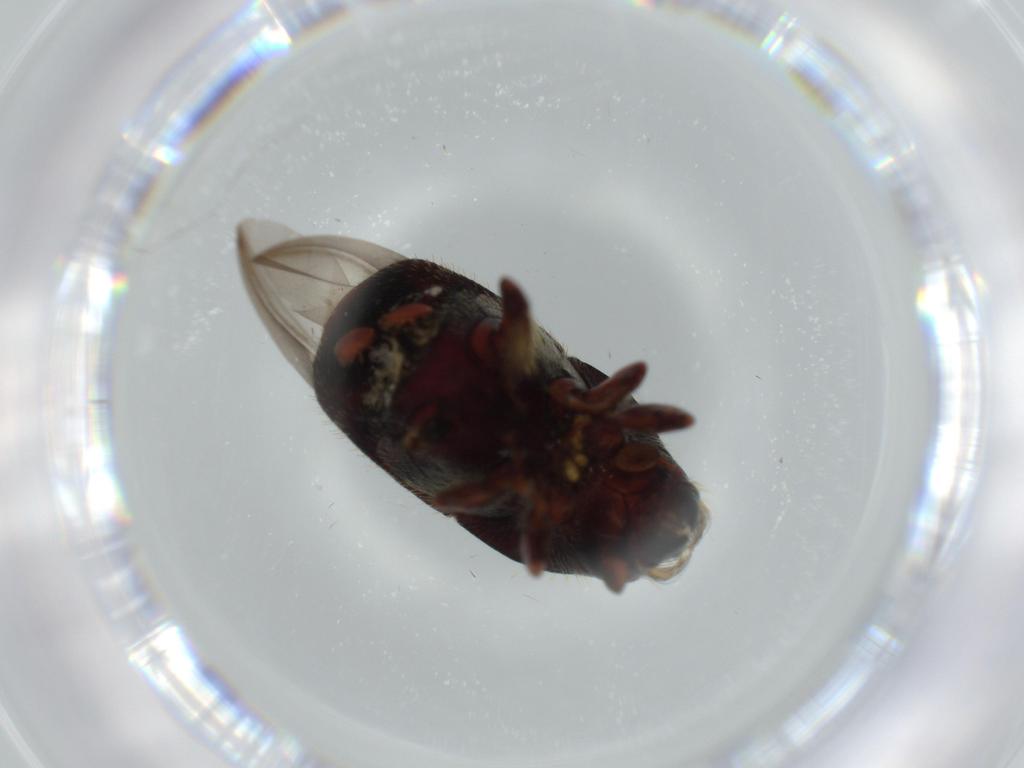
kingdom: Animalia
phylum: Arthropoda
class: Insecta
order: Coleoptera
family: Curculionidae
